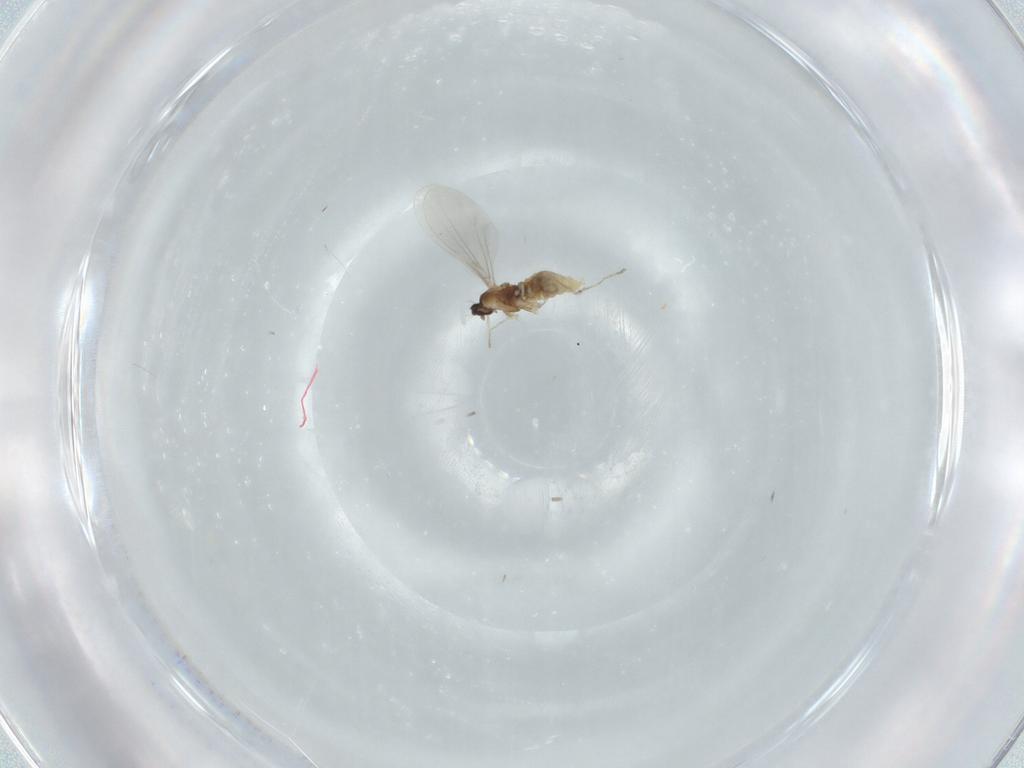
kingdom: Animalia
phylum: Arthropoda
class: Insecta
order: Diptera
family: Cecidomyiidae
